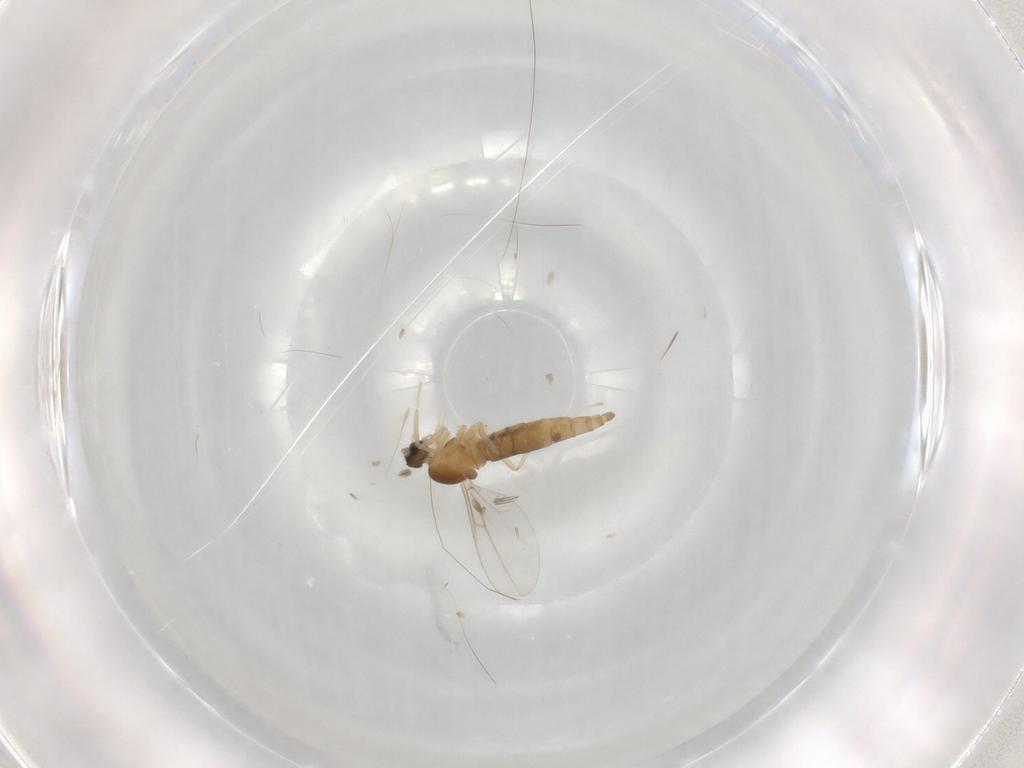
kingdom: Animalia
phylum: Arthropoda
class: Insecta
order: Diptera
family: Cecidomyiidae
